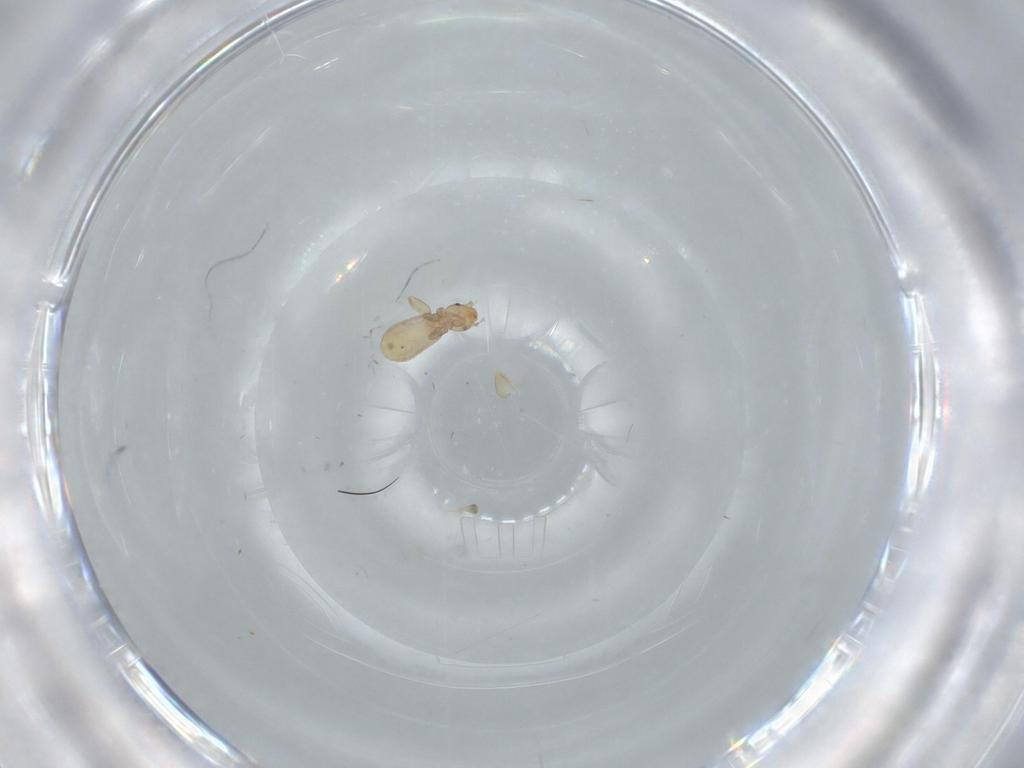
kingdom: Animalia
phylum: Arthropoda
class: Insecta
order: Psocodea
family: Liposcelididae
